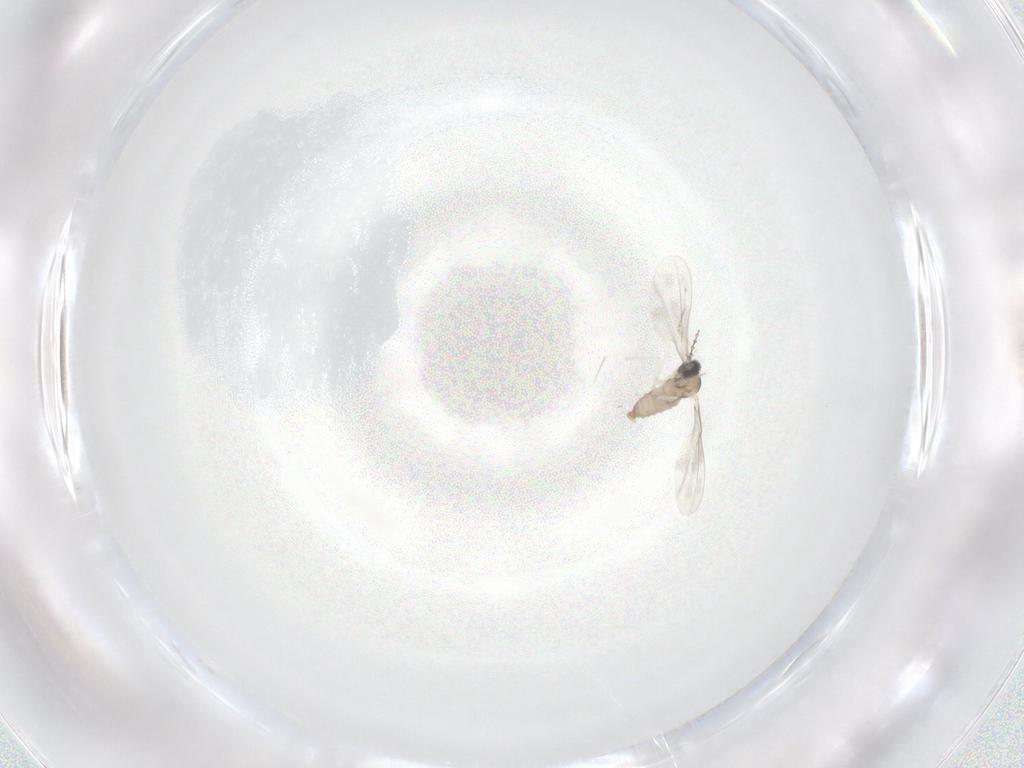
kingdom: Animalia
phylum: Arthropoda
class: Insecta
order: Diptera
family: Cecidomyiidae
